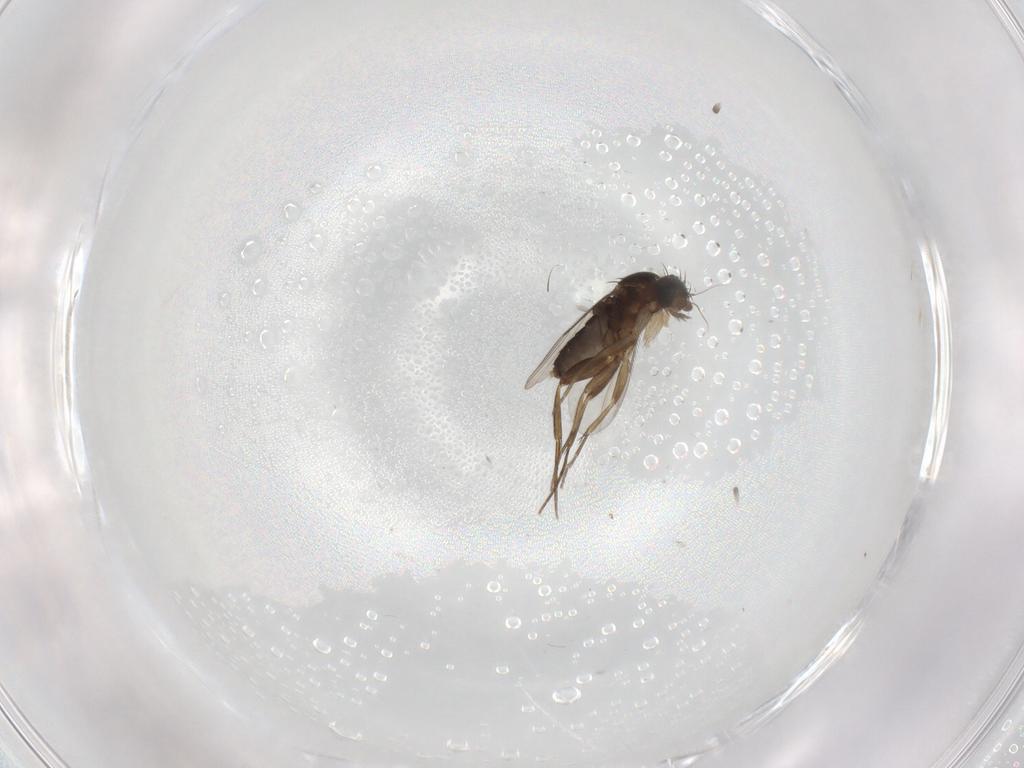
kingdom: Animalia
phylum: Arthropoda
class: Insecta
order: Diptera
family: Phoridae
